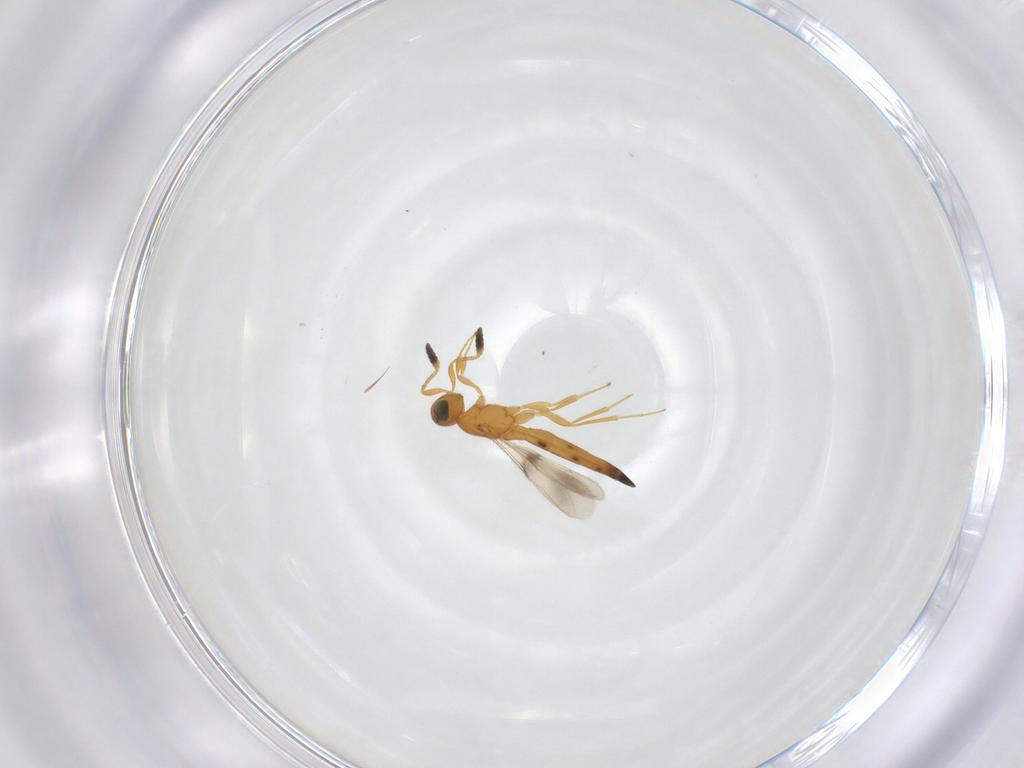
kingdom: Animalia
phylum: Arthropoda
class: Insecta
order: Hymenoptera
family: Scelionidae
